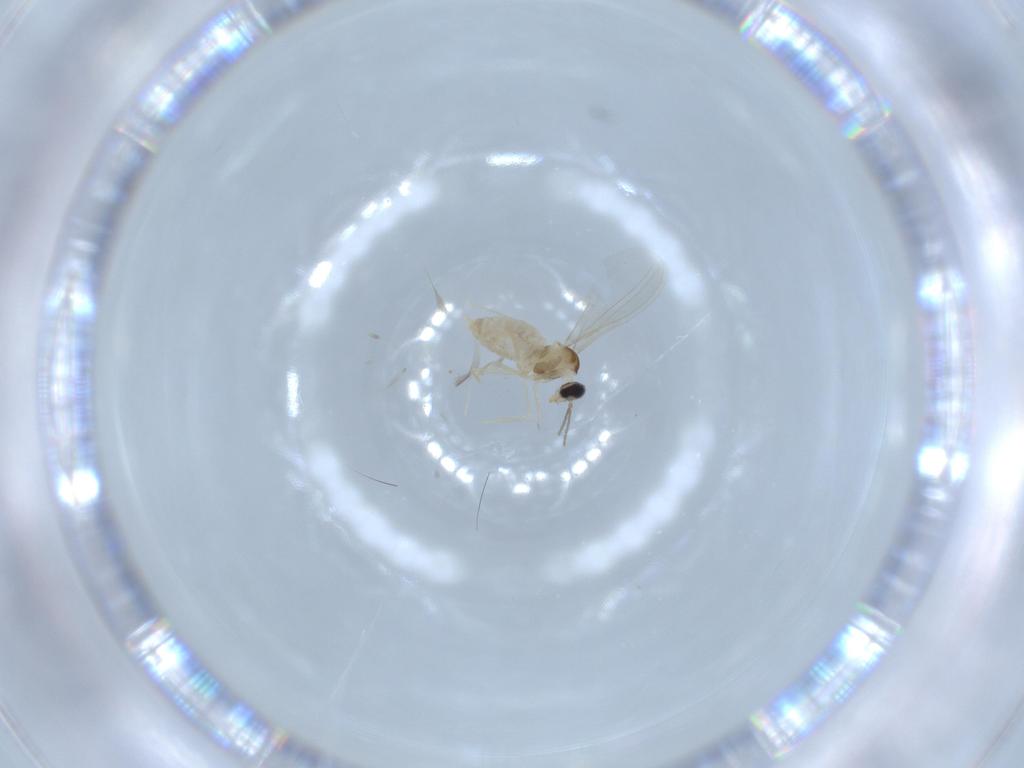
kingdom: Animalia
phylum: Arthropoda
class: Insecta
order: Diptera
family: Cecidomyiidae
